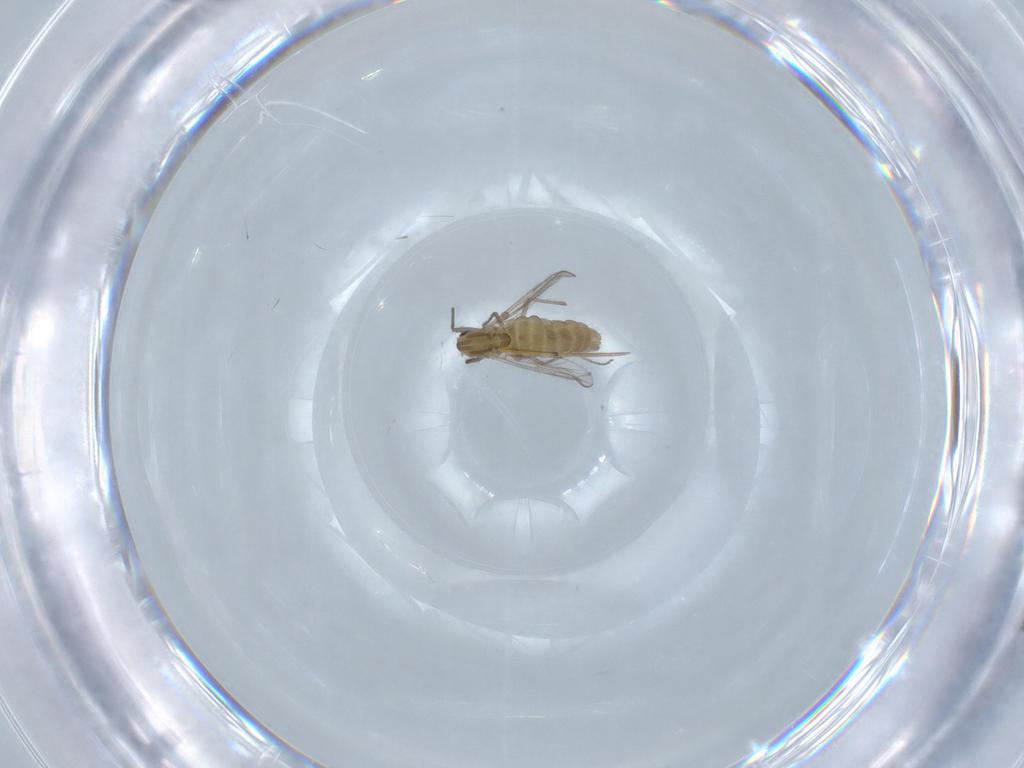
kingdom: Animalia
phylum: Arthropoda
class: Insecta
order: Diptera
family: Chironomidae
